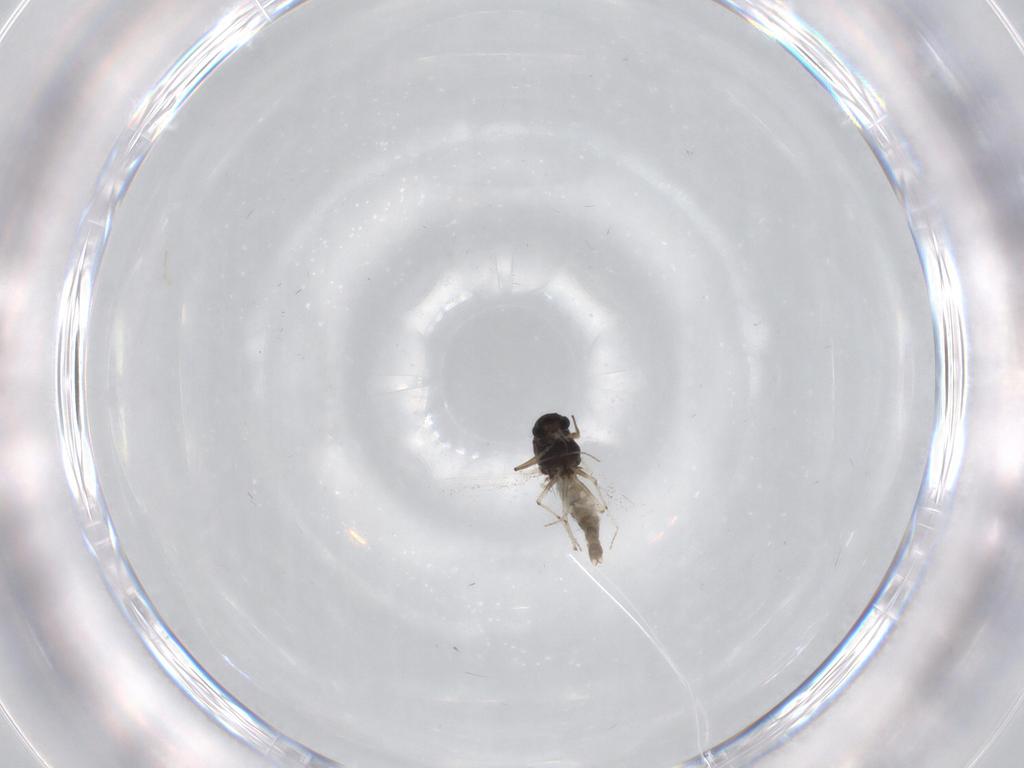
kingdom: Animalia
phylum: Arthropoda
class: Insecta
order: Diptera
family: Chironomidae
